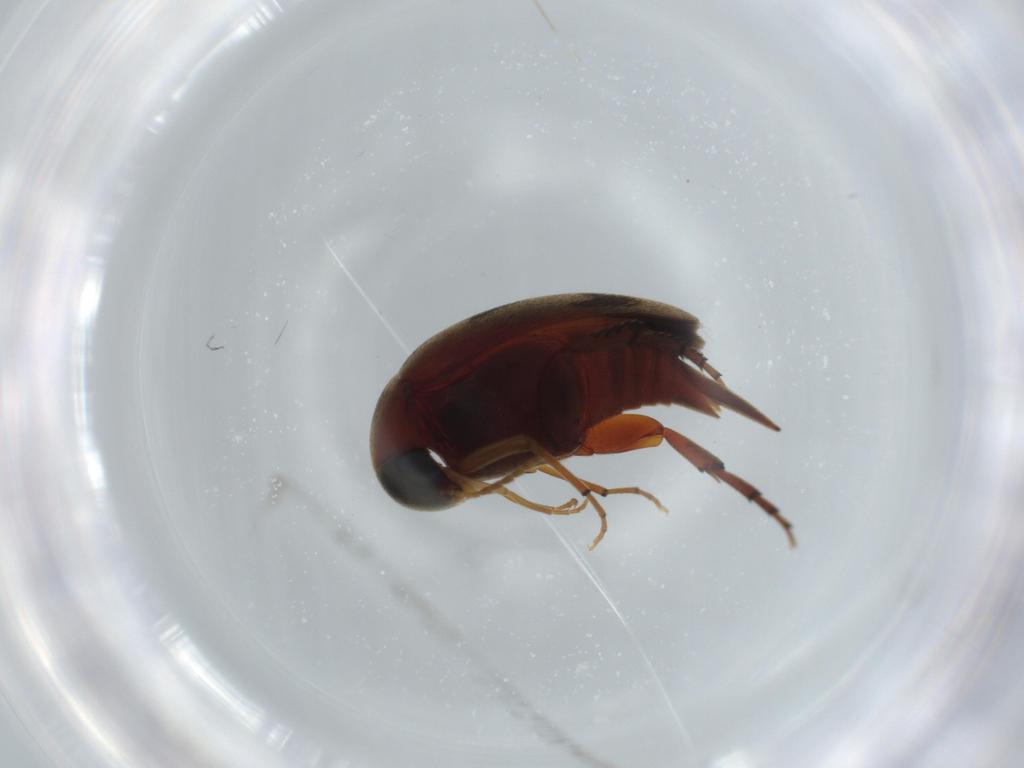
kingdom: Animalia
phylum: Arthropoda
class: Insecta
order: Coleoptera
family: Mordellidae
